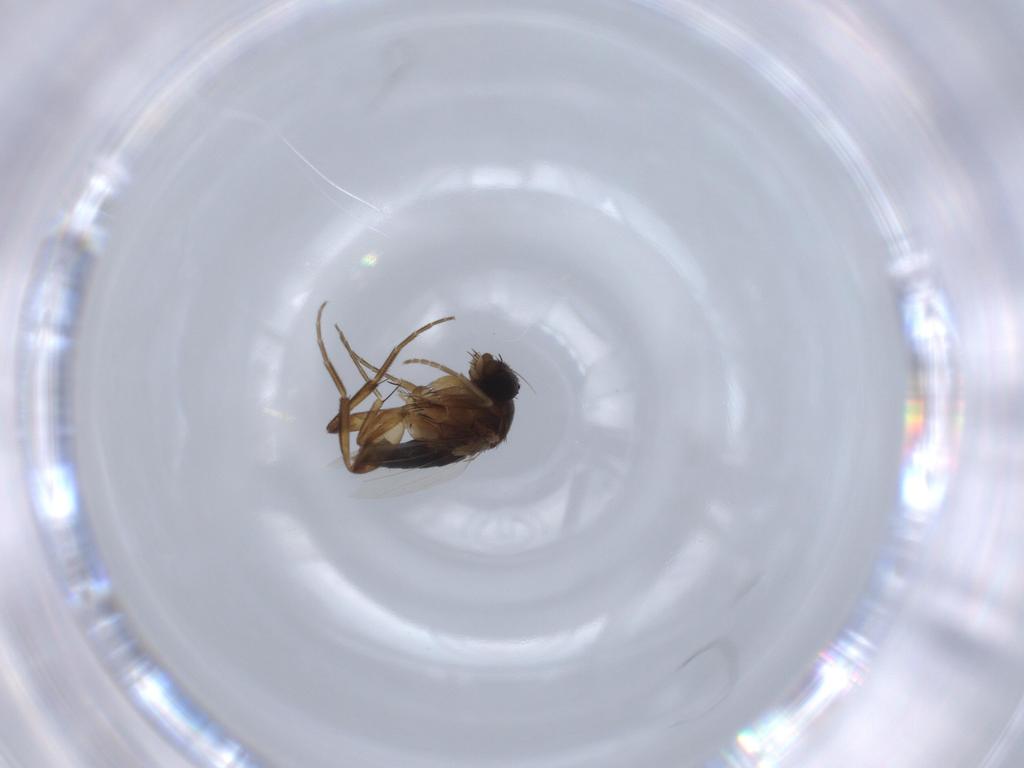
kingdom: Animalia
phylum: Arthropoda
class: Insecta
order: Diptera
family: Phoridae
